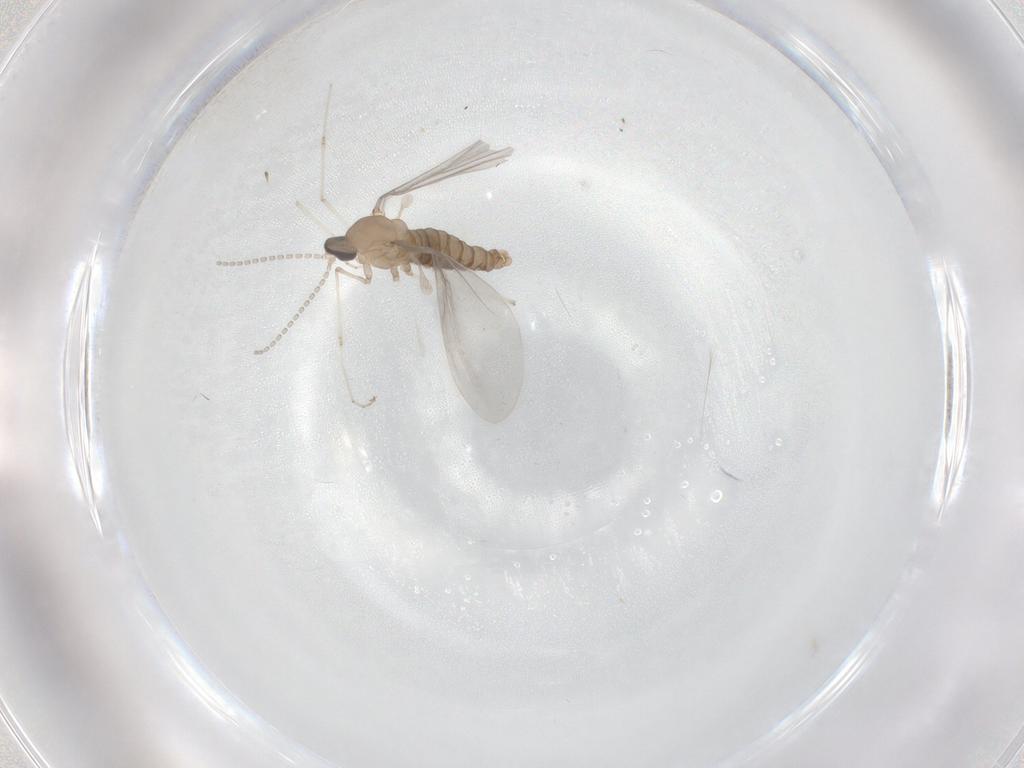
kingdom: Animalia
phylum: Arthropoda
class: Insecta
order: Diptera
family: Cecidomyiidae
